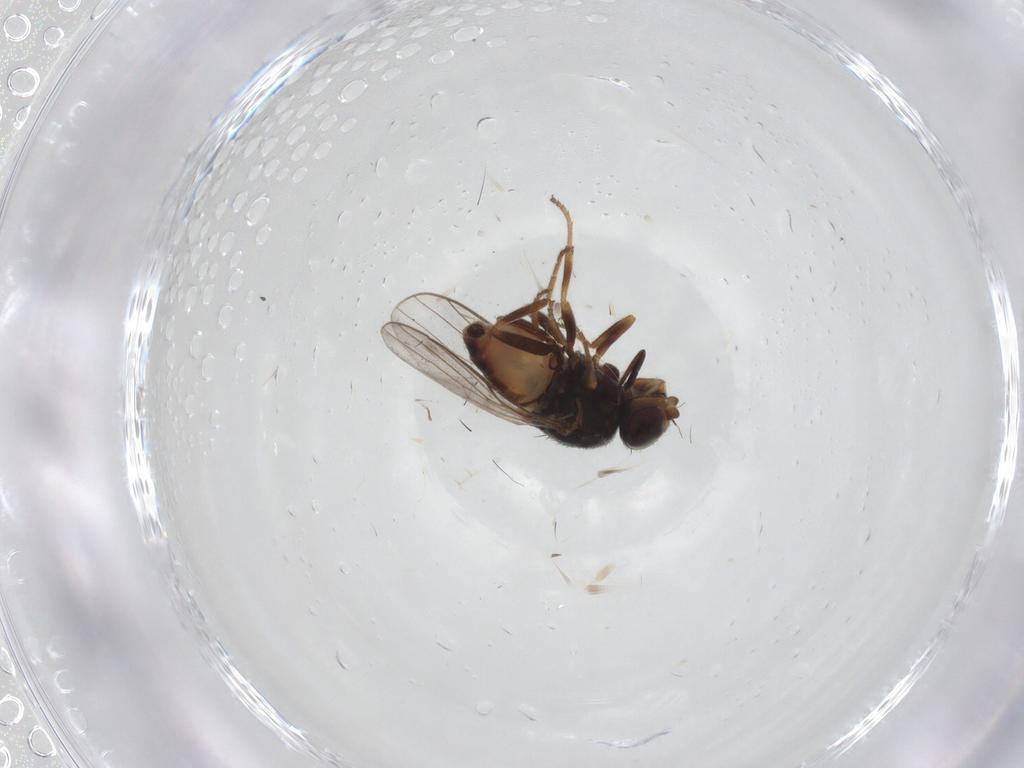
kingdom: Animalia
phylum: Arthropoda
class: Insecta
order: Diptera
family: Chloropidae
